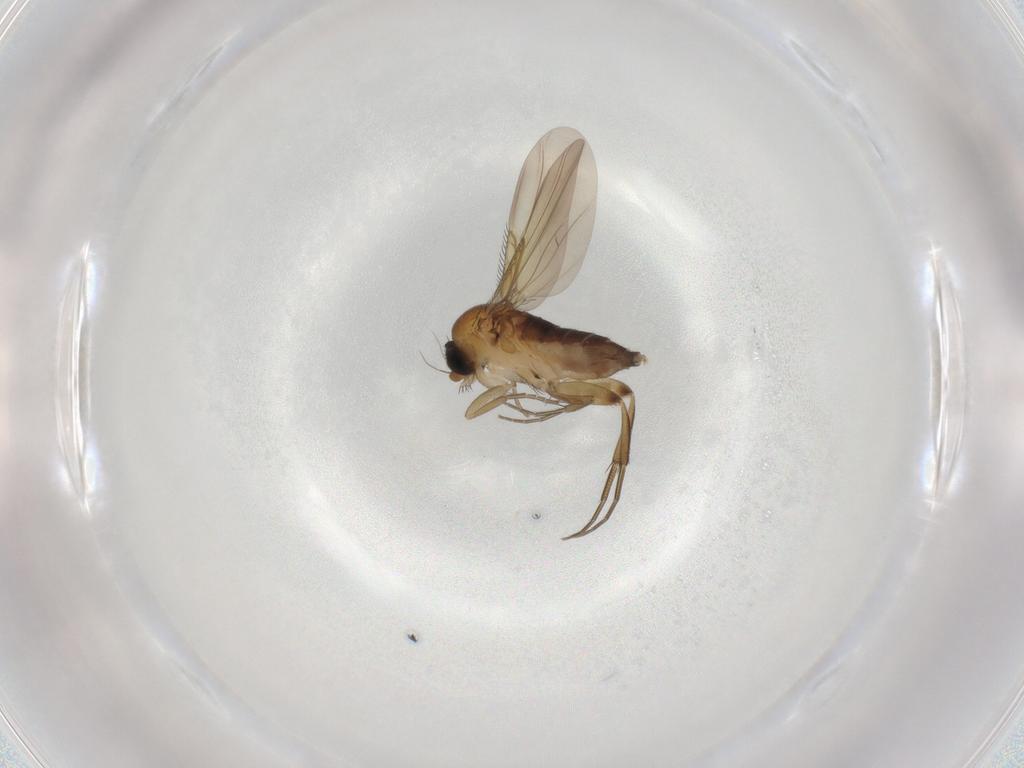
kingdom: Animalia
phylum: Arthropoda
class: Insecta
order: Diptera
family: Phoridae
